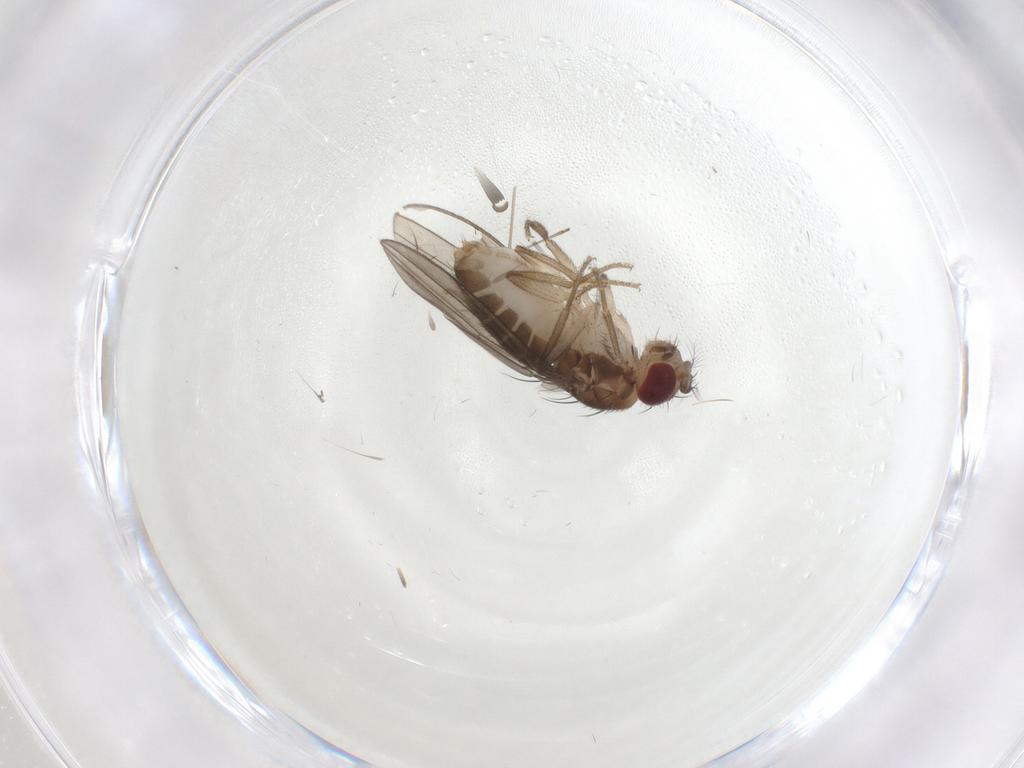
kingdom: Animalia
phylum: Arthropoda
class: Insecta
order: Diptera
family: Drosophilidae
